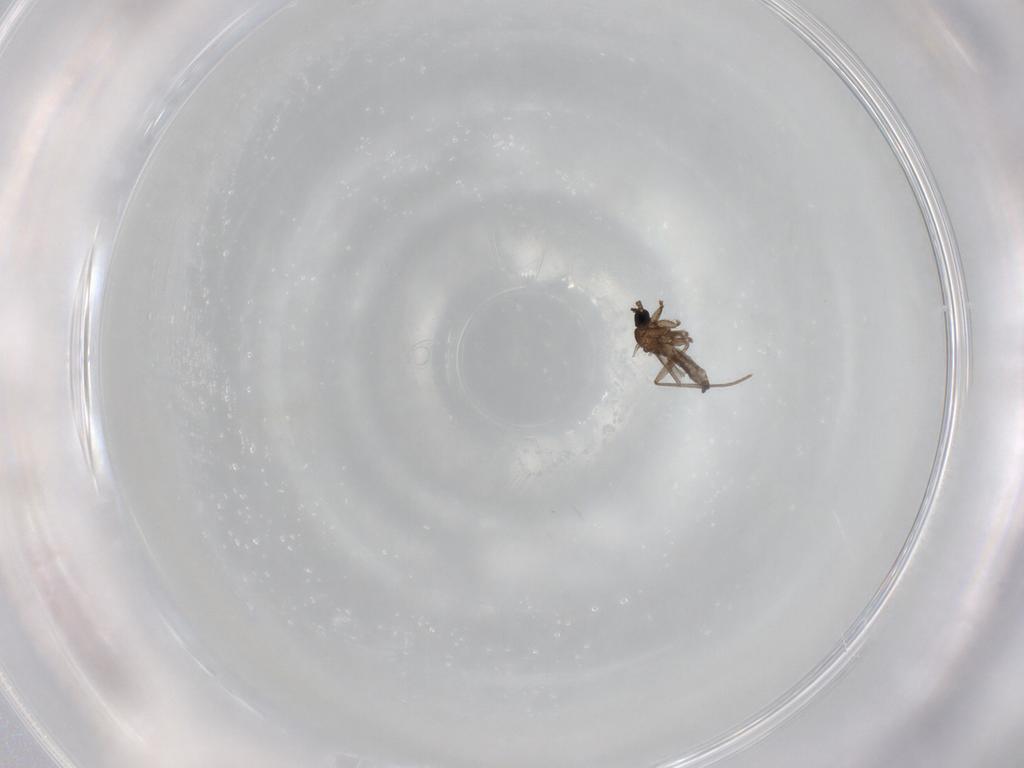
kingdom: Animalia
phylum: Arthropoda
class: Insecta
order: Diptera
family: Sciaridae
